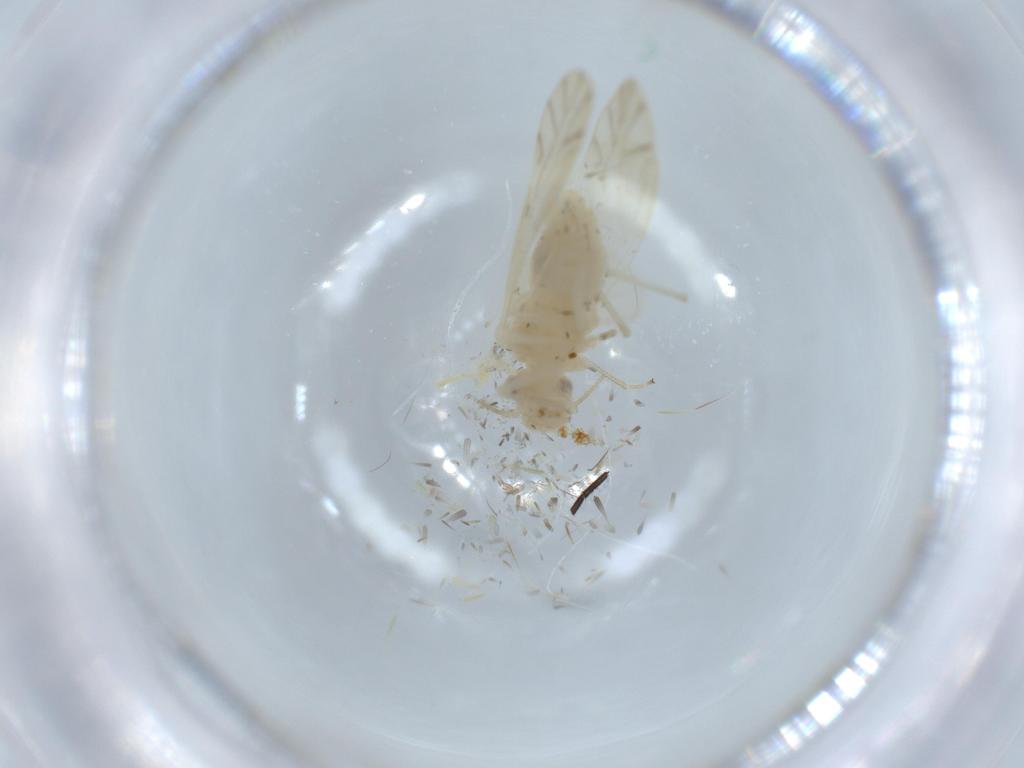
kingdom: Animalia
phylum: Arthropoda
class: Insecta
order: Psocodea
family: Caeciliusidae
